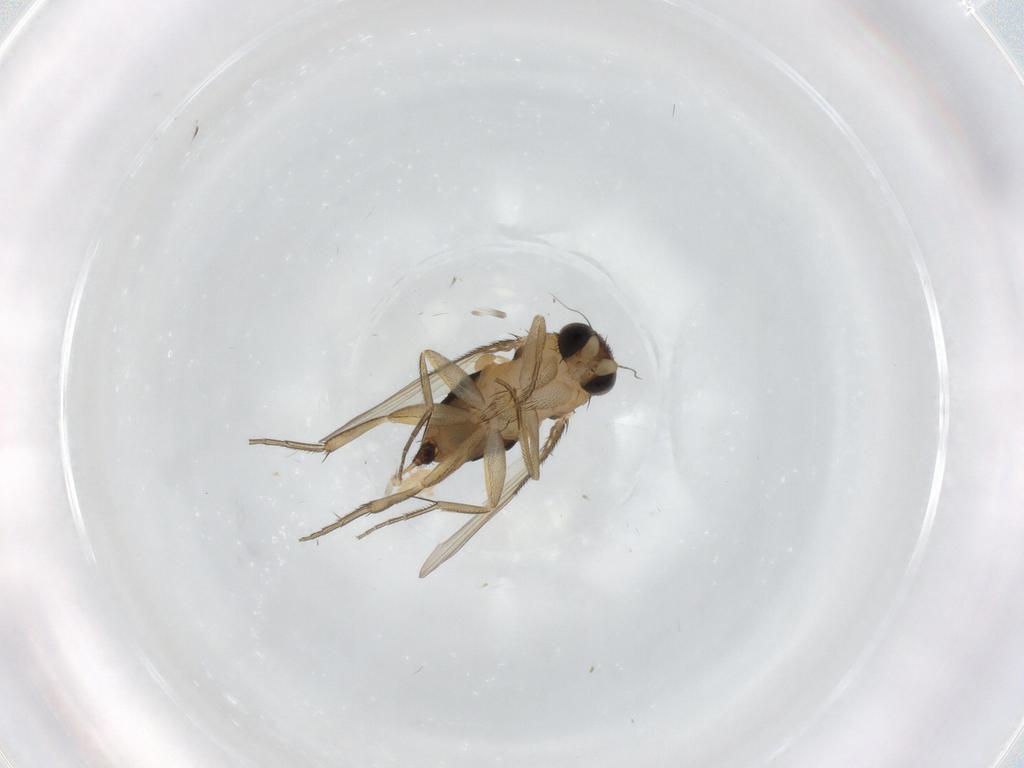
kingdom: Animalia
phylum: Arthropoda
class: Insecta
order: Diptera
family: Phoridae
